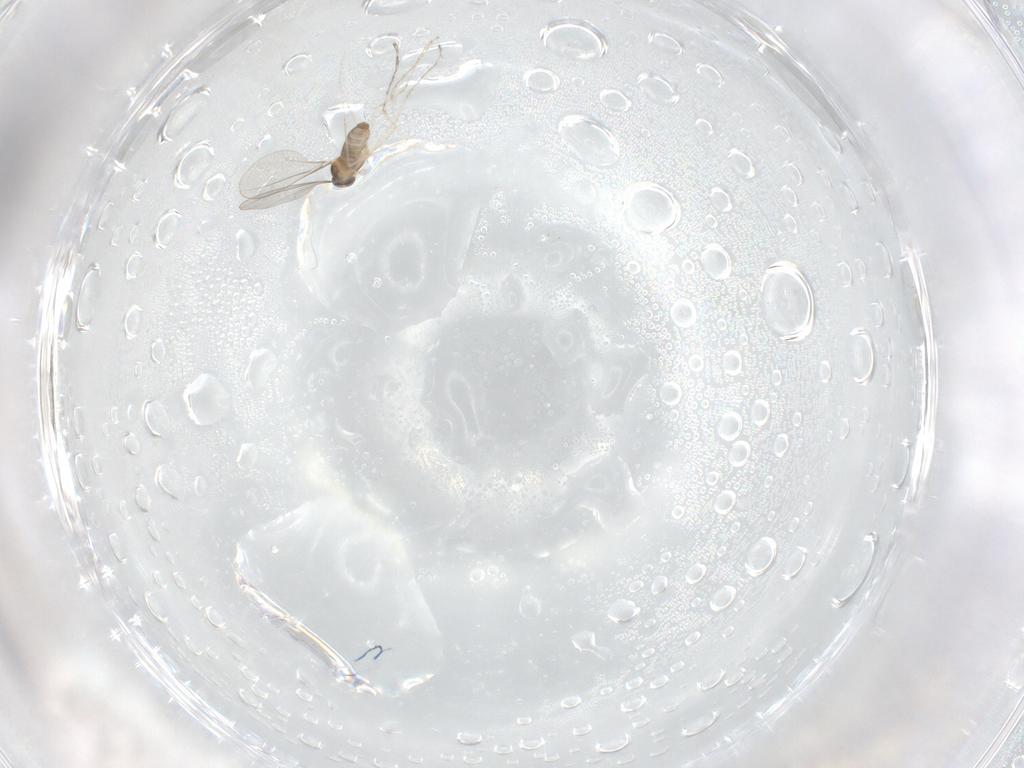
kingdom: Animalia
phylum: Arthropoda
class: Insecta
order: Diptera
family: Cecidomyiidae
